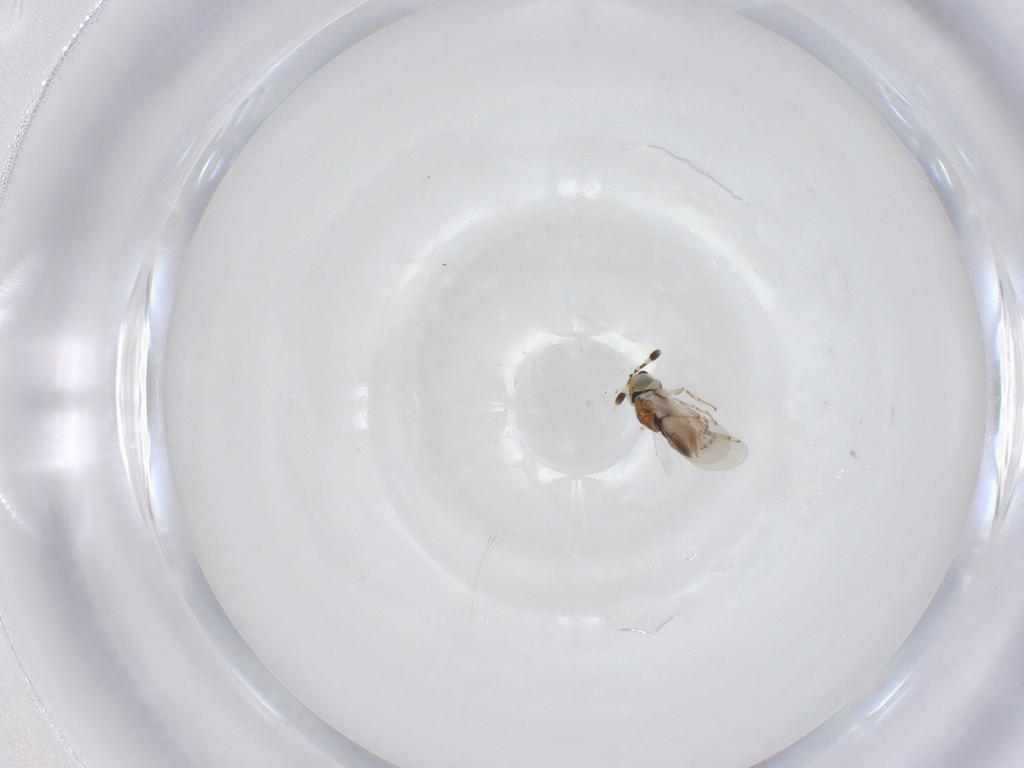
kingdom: Animalia
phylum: Arthropoda
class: Insecta
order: Hymenoptera
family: Encyrtidae
